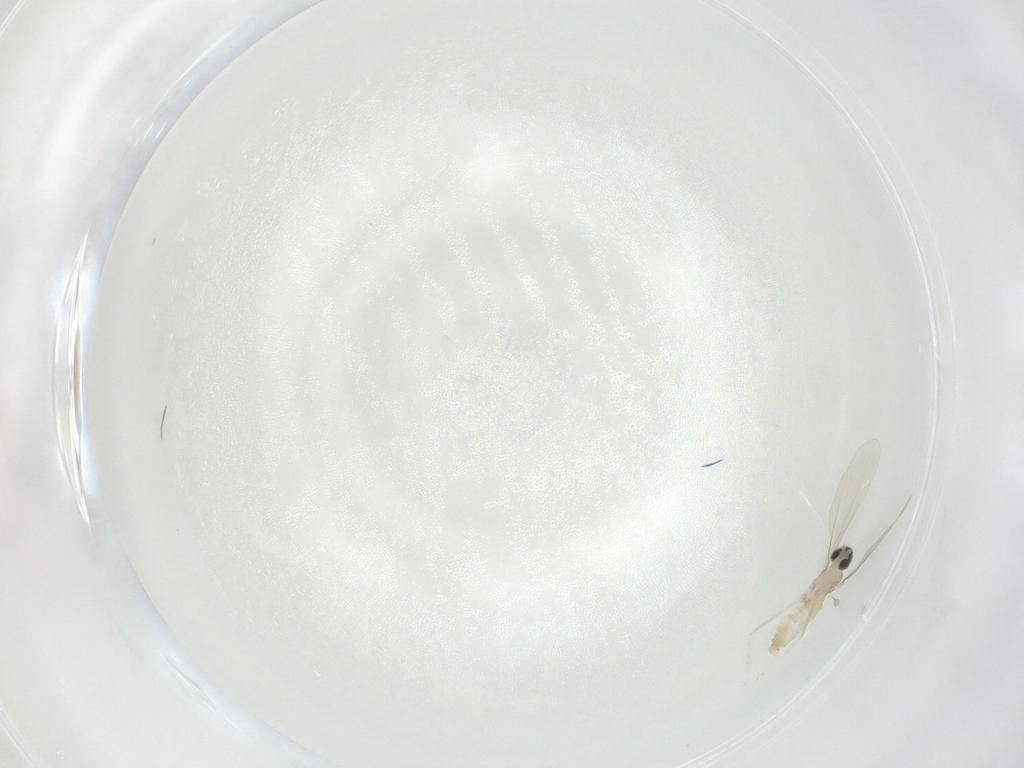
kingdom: Animalia
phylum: Arthropoda
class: Insecta
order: Diptera
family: Dolichopodidae
